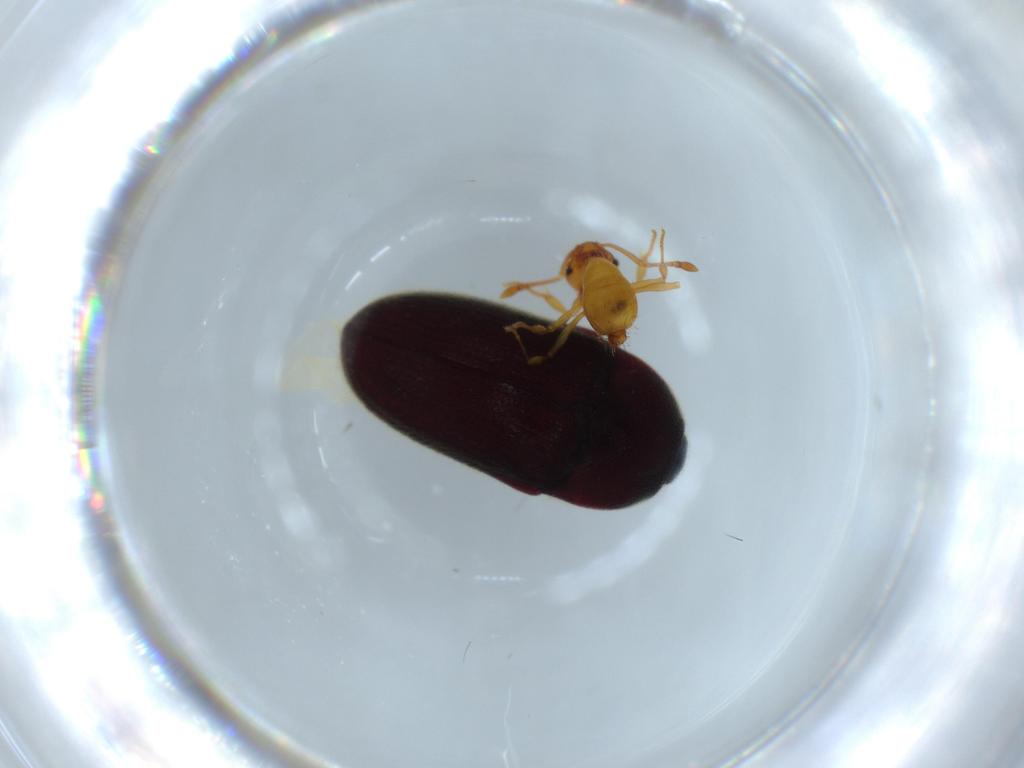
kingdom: Animalia
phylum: Arthropoda
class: Insecta
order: Coleoptera
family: Throscidae
